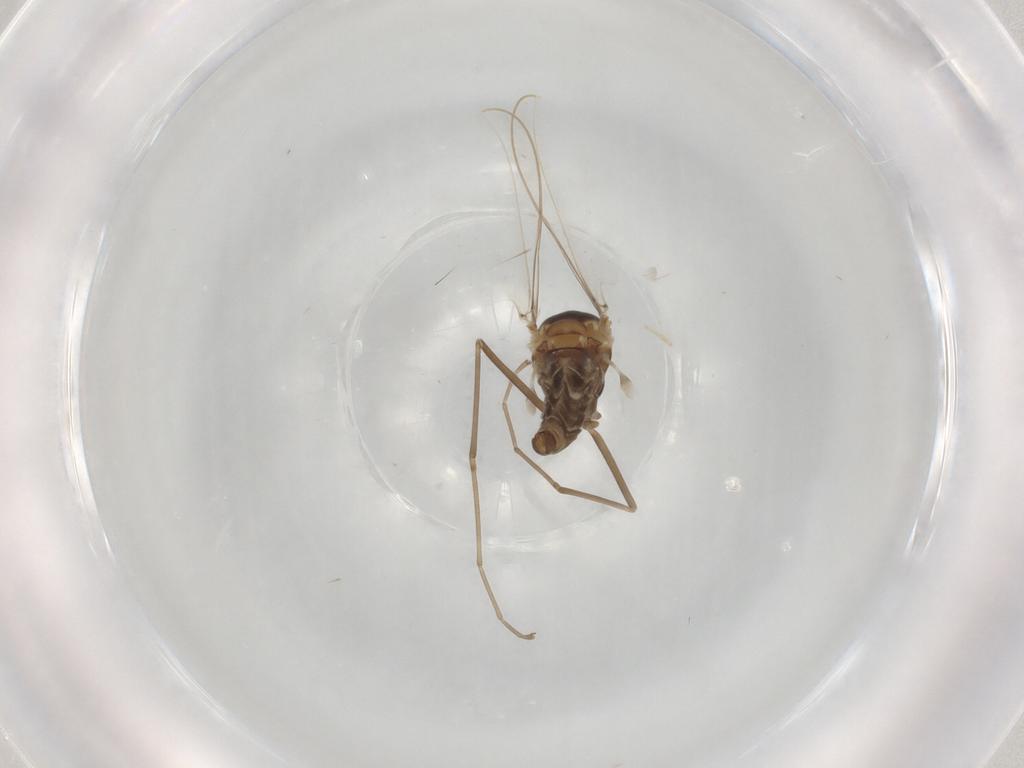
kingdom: Animalia
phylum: Arthropoda
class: Insecta
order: Diptera
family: Cecidomyiidae
